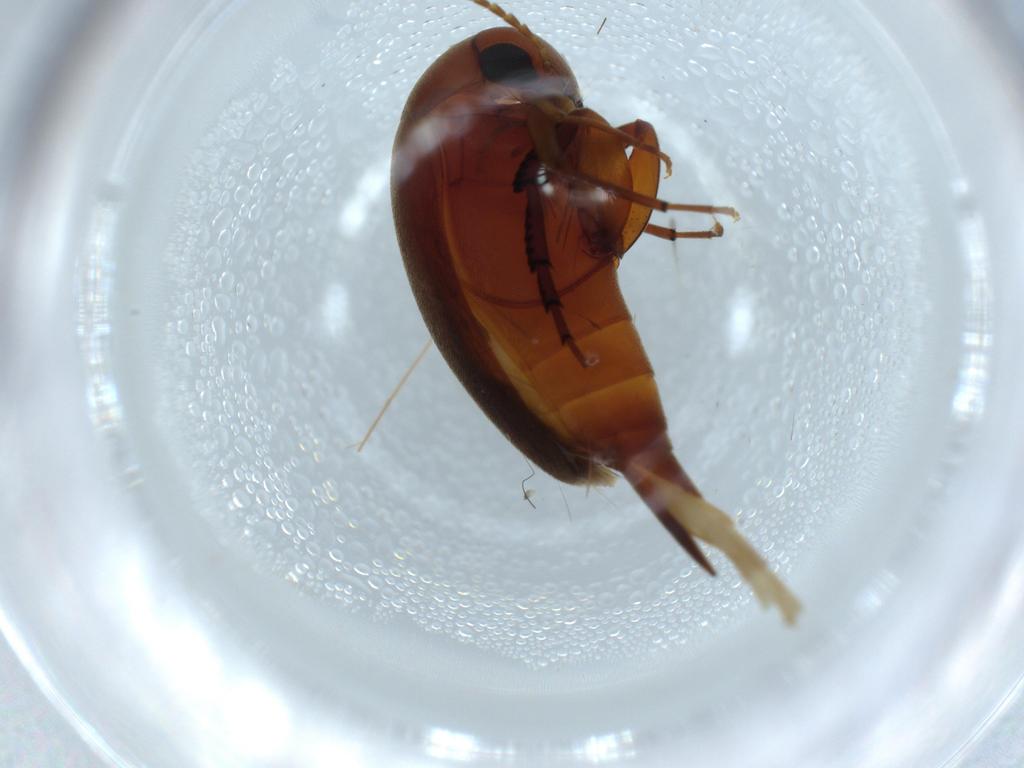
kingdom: Animalia
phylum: Arthropoda
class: Insecta
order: Coleoptera
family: Mordellidae
